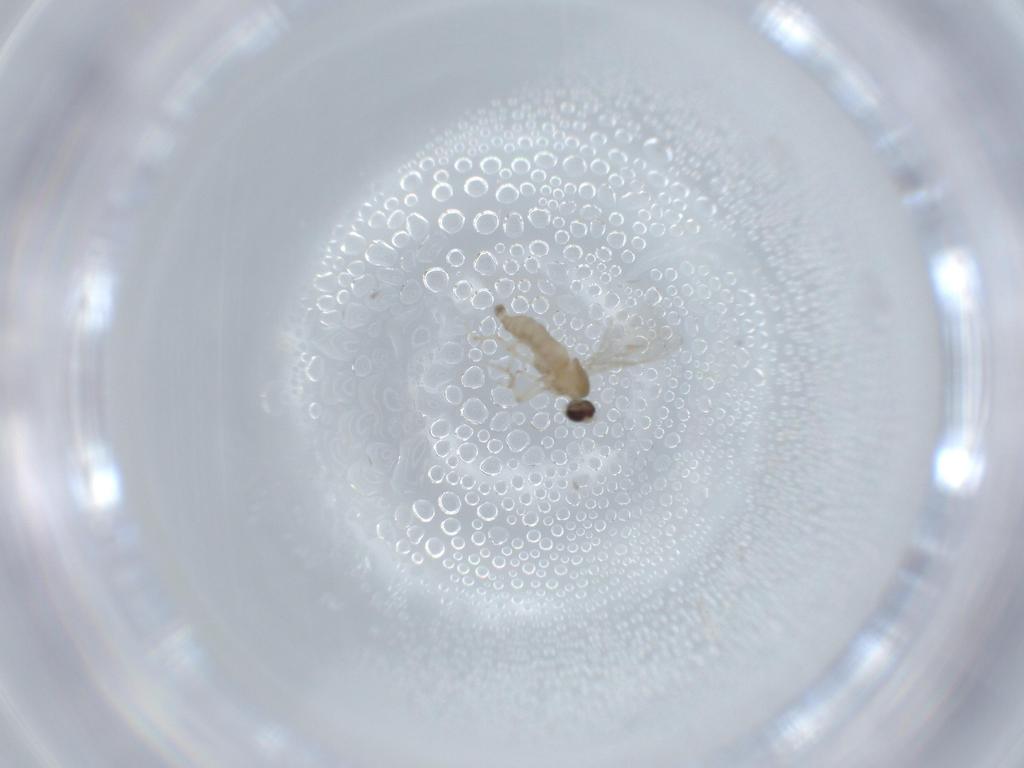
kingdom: Animalia
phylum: Arthropoda
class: Insecta
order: Diptera
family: Cecidomyiidae
